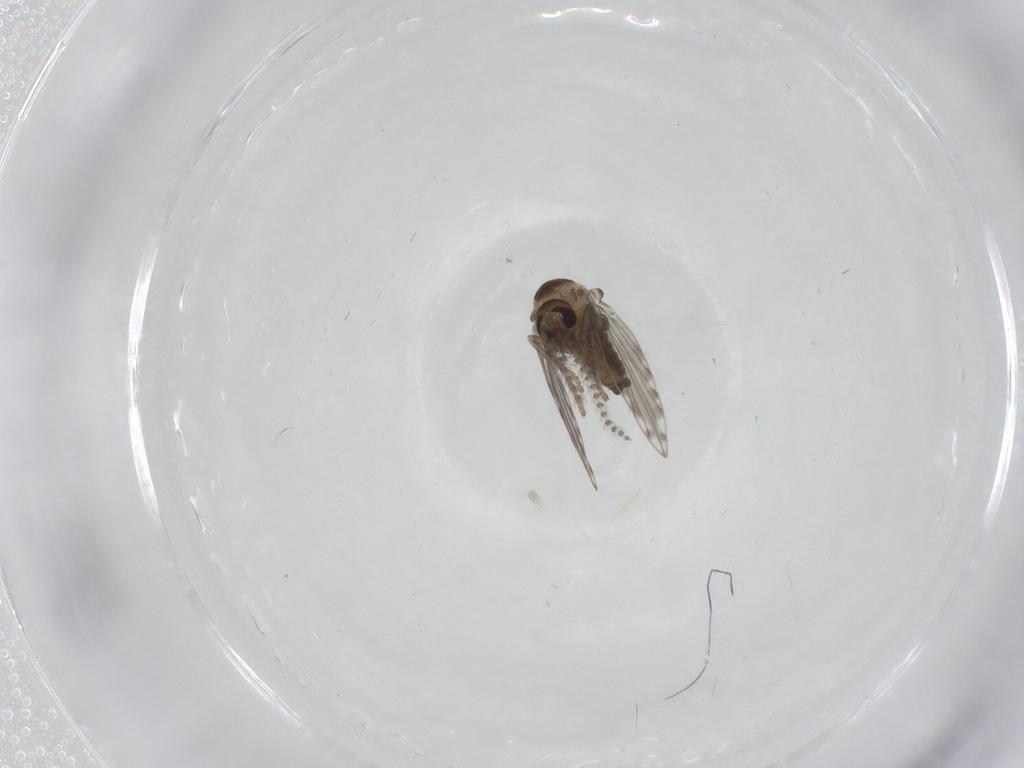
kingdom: Animalia
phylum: Arthropoda
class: Insecta
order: Diptera
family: Psychodidae
